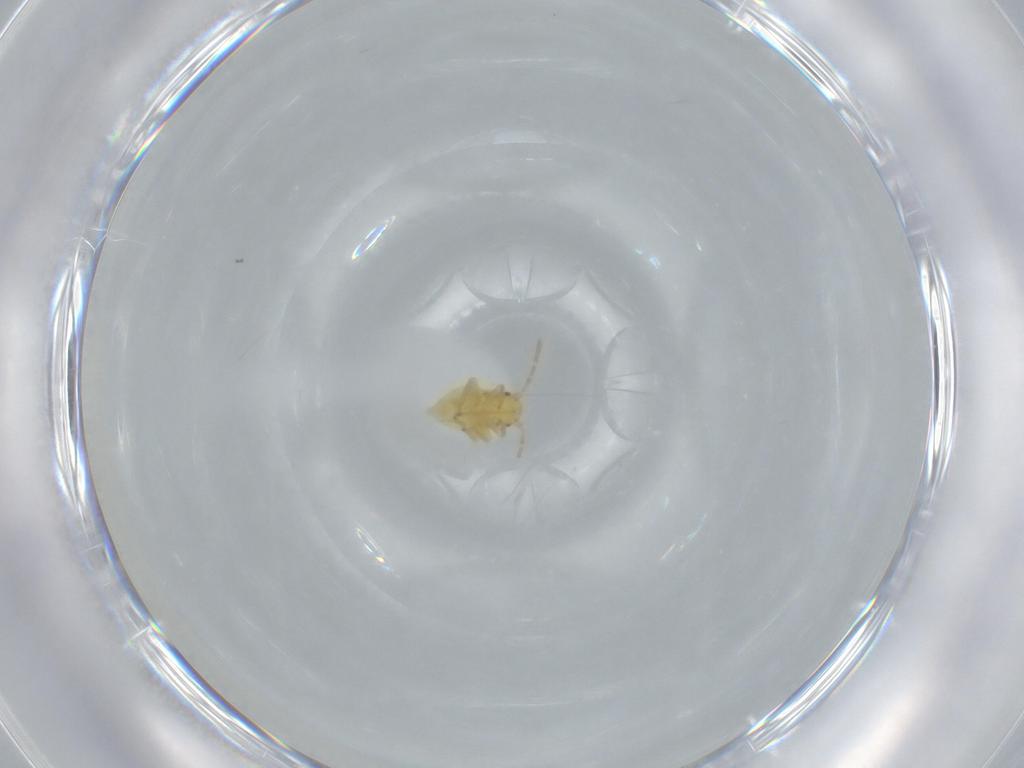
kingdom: Animalia
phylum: Arthropoda
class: Insecta
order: Hemiptera
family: Miridae
